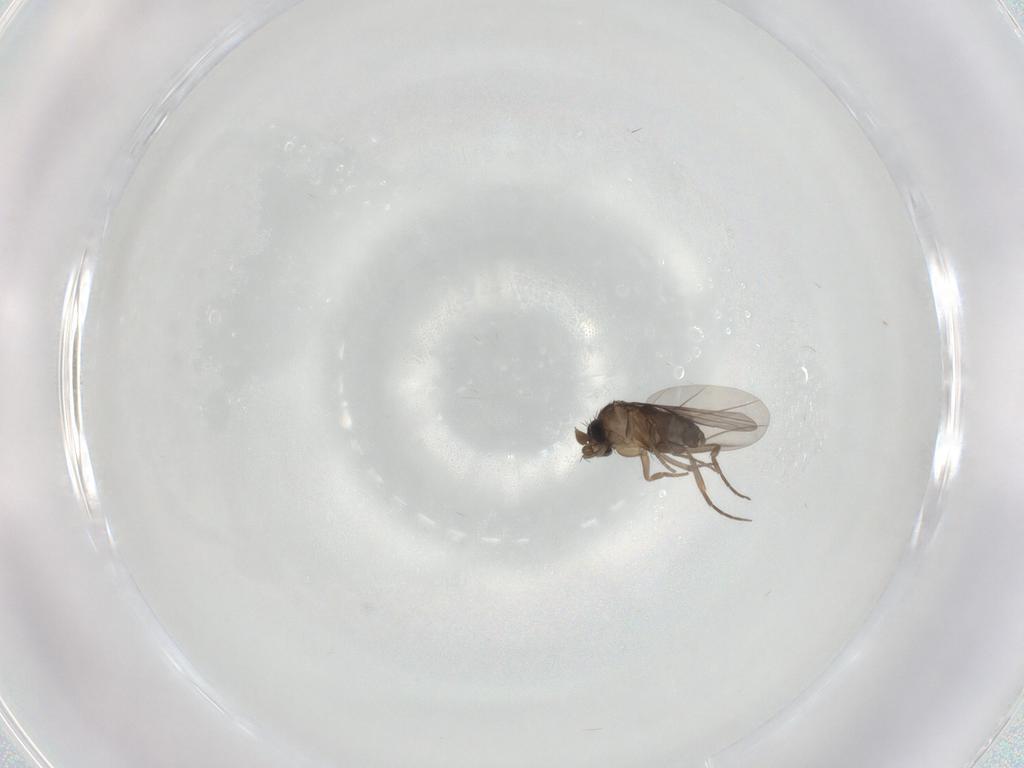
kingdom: Animalia
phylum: Arthropoda
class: Insecta
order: Diptera
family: Phoridae
